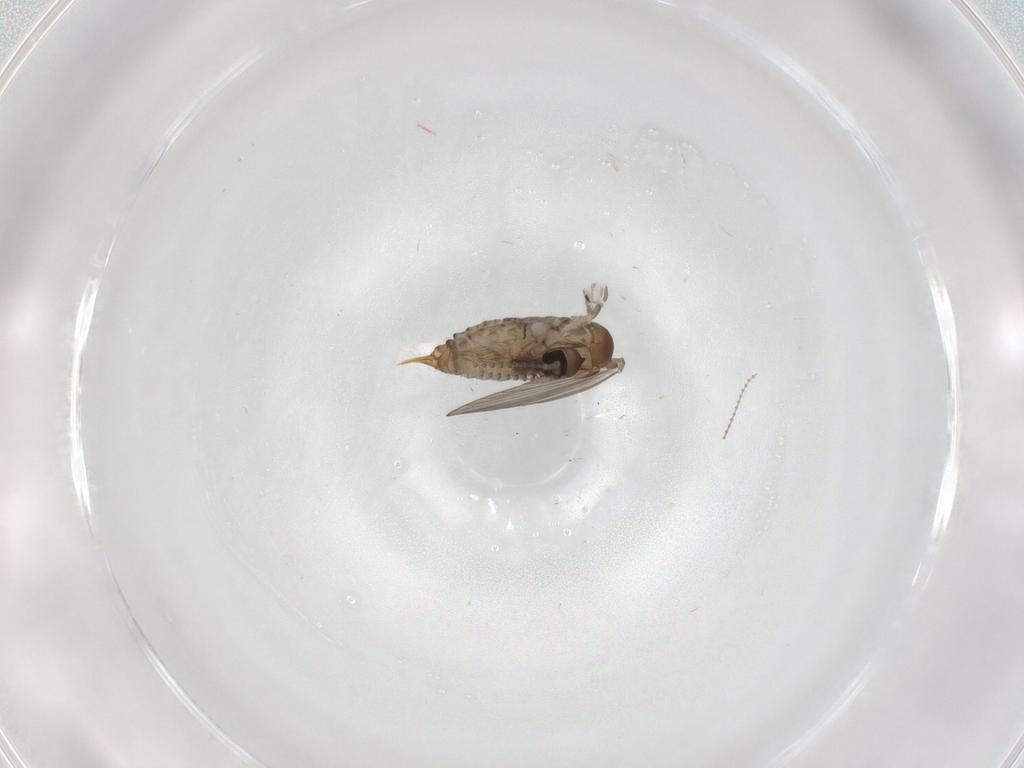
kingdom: Animalia
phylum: Arthropoda
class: Insecta
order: Diptera
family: Psychodidae
